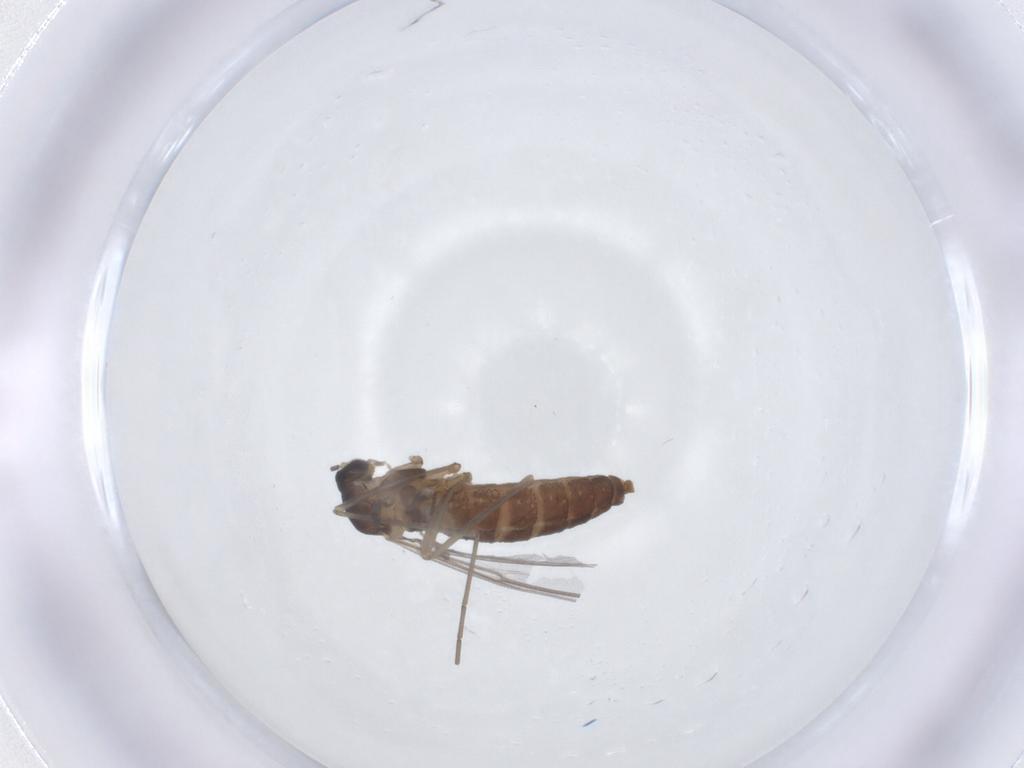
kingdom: Animalia
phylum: Arthropoda
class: Insecta
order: Diptera
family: Cecidomyiidae
